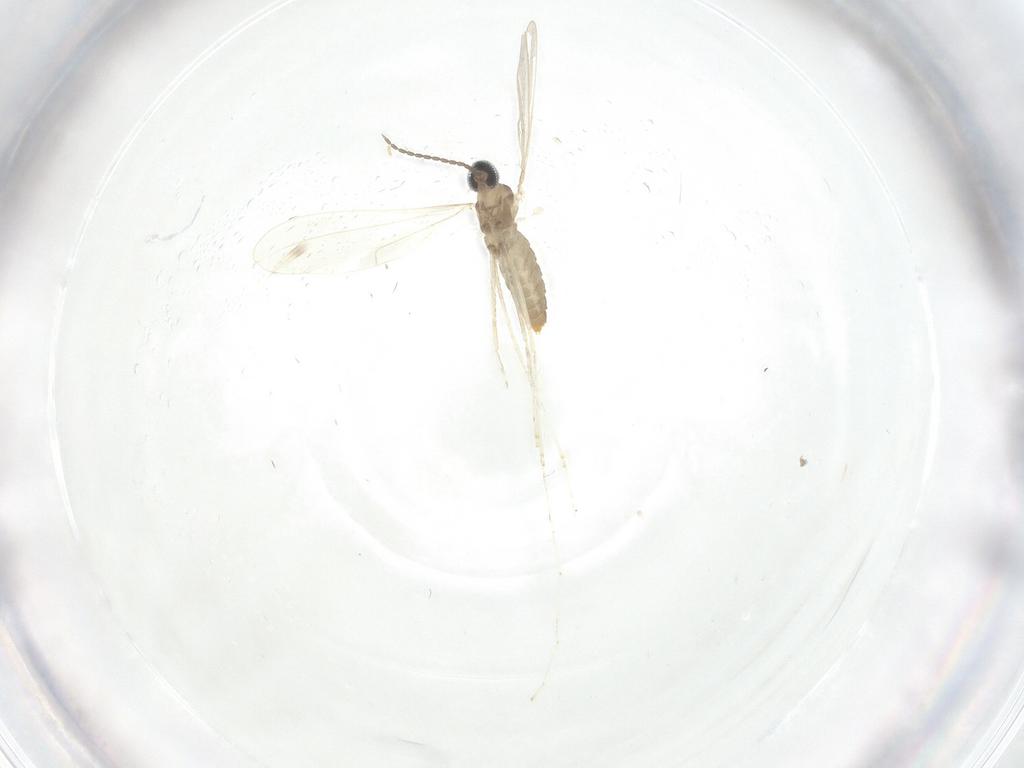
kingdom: Animalia
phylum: Arthropoda
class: Insecta
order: Diptera
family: Cecidomyiidae
